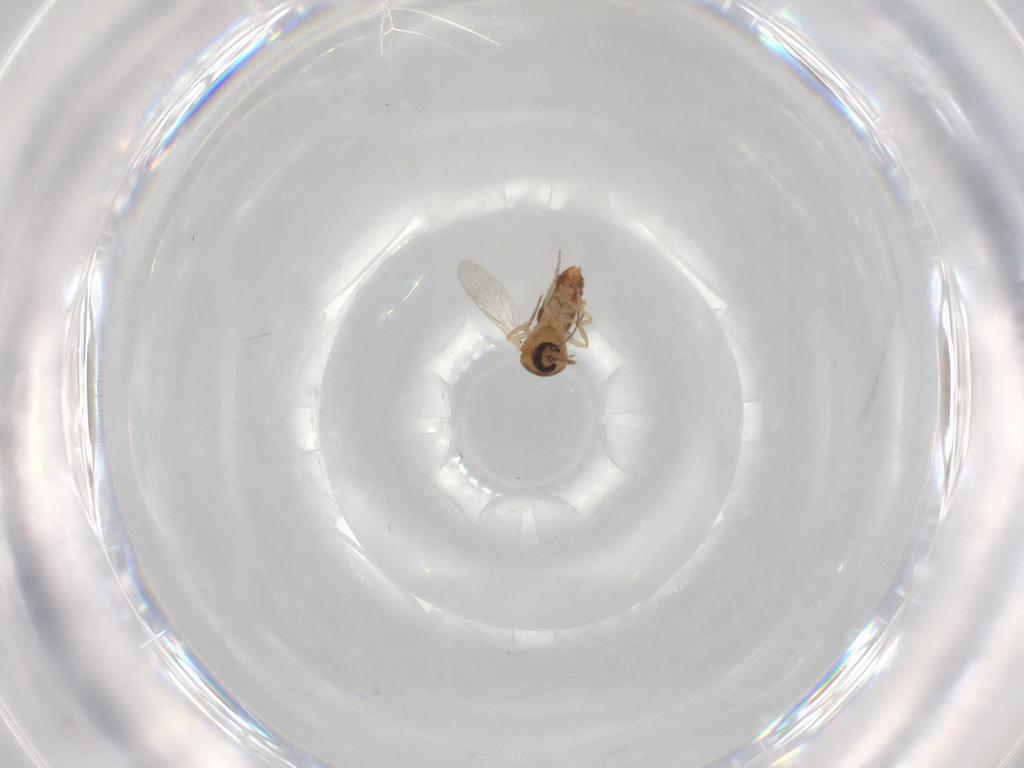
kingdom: Animalia
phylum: Arthropoda
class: Insecta
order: Diptera
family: Ceratopogonidae
